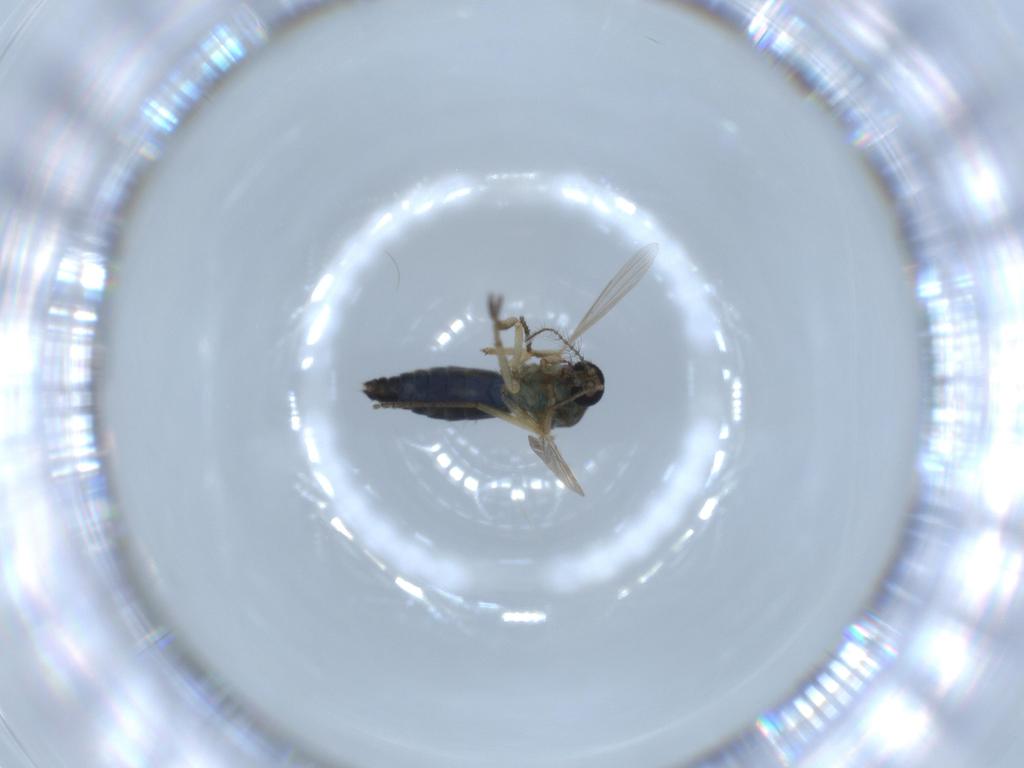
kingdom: Animalia
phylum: Arthropoda
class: Insecta
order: Diptera
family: Ceratopogonidae
